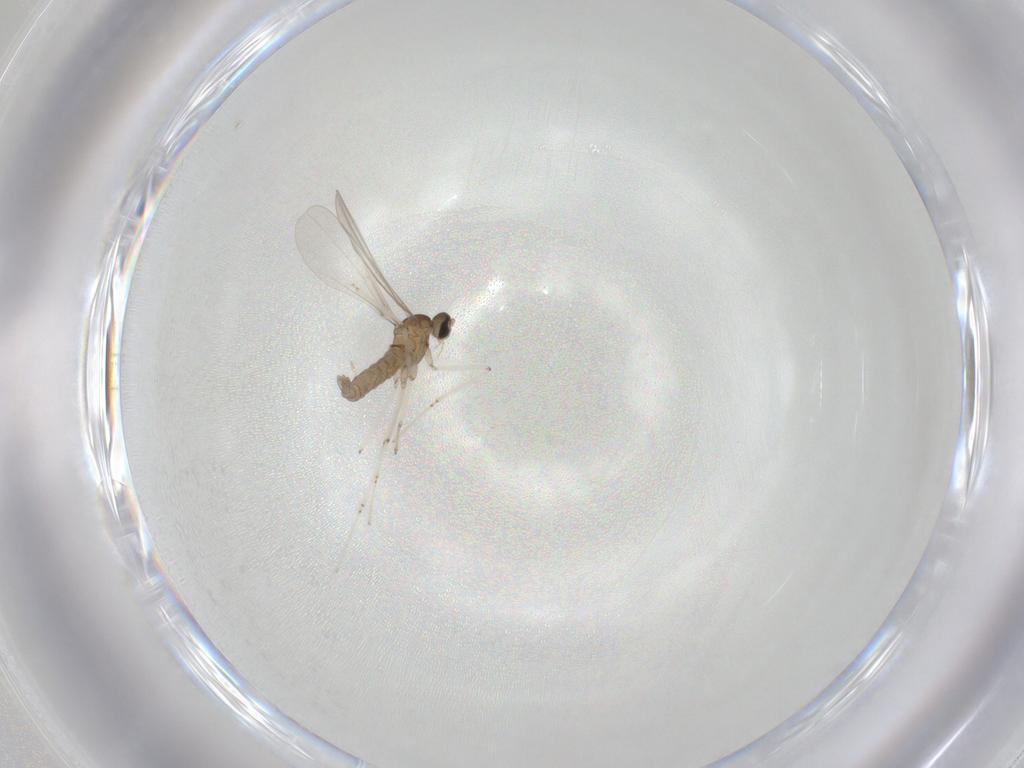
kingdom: Animalia
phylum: Arthropoda
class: Insecta
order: Diptera
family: Cecidomyiidae
